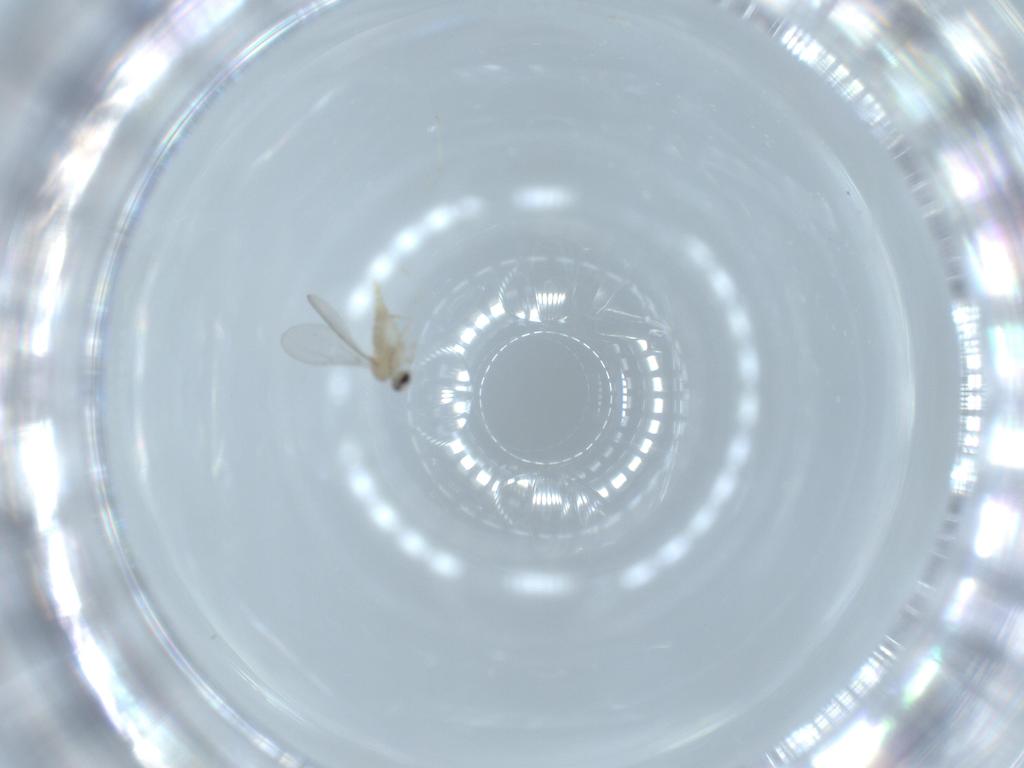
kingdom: Animalia
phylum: Arthropoda
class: Insecta
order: Diptera
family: Cecidomyiidae
